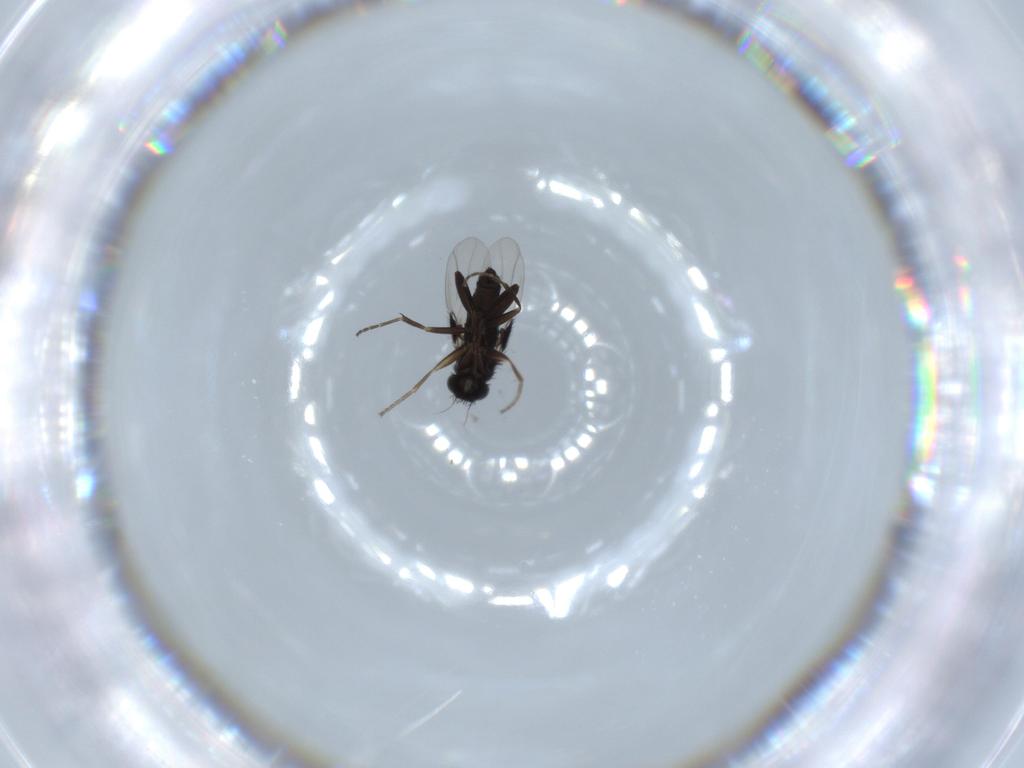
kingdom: Animalia
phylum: Arthropoda
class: Insecta
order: Diptera
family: Phoridae
